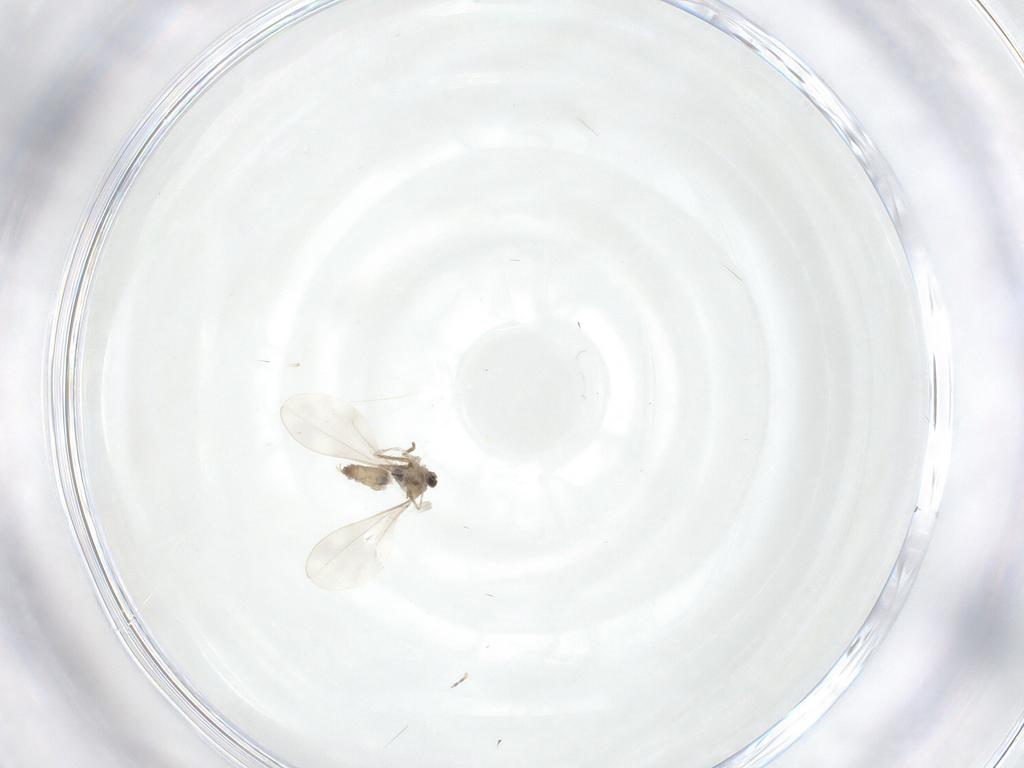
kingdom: Animalia
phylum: Arthropoda
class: Insecta
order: Diptera
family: Cecidomyiidae
